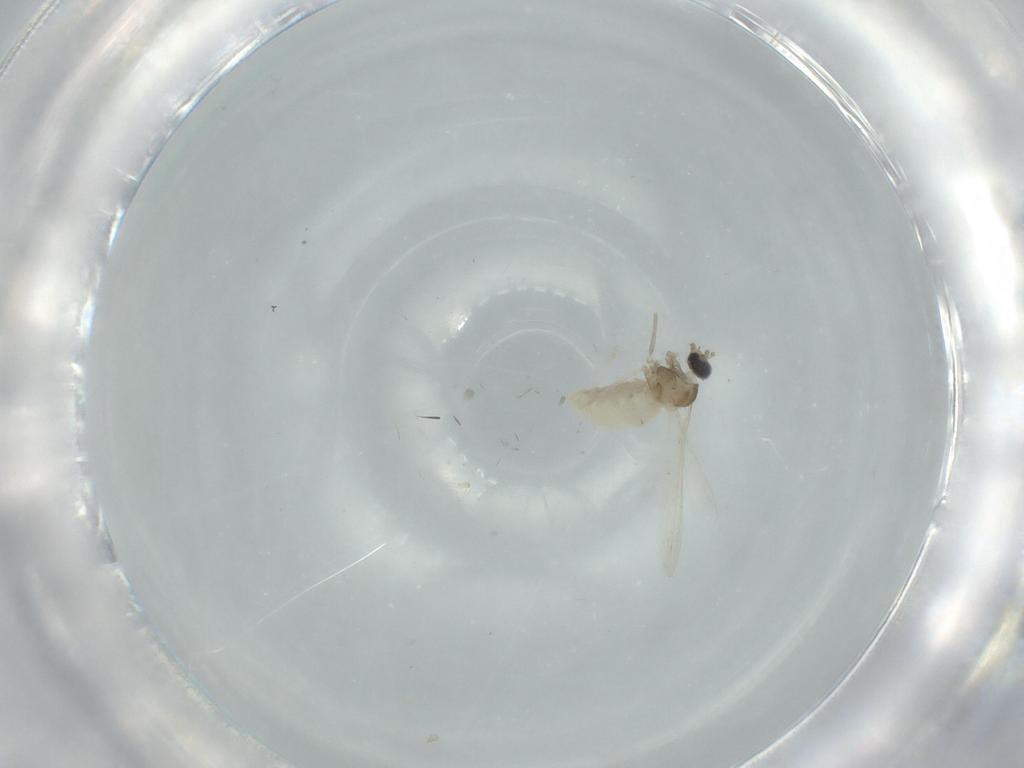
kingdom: Animalia
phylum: Arthropoda
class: Insecta
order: Diptera
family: Cecidomyiidae
